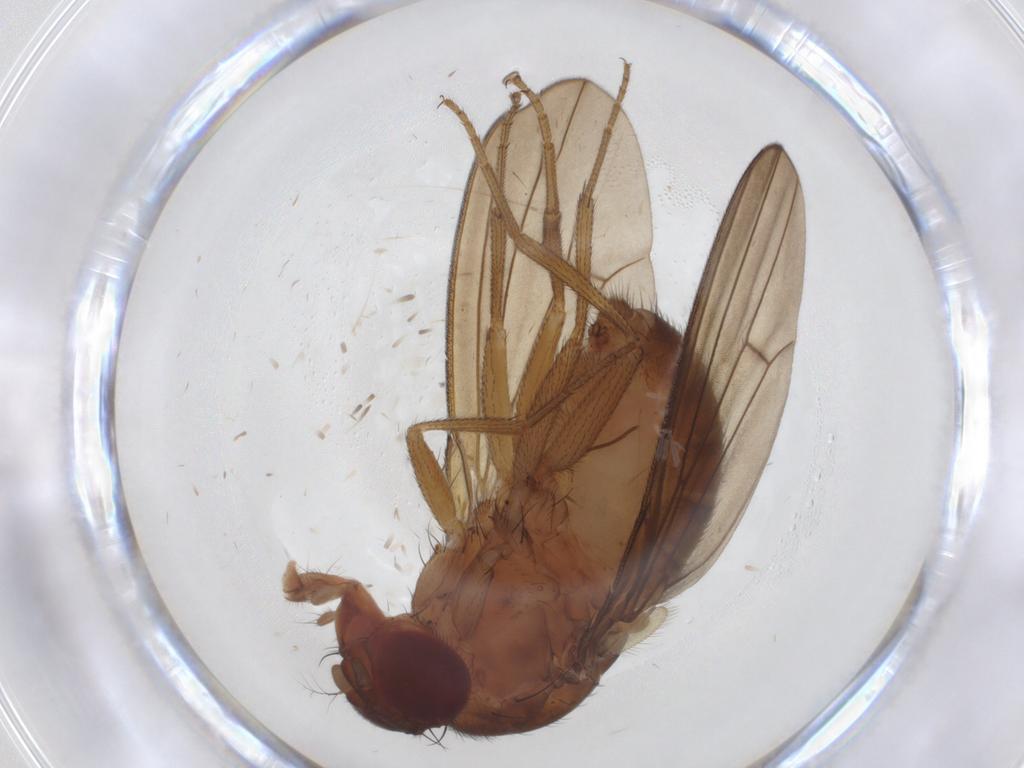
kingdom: Animalia
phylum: Arthropoda
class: Insecta
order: Diptera
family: Drosophilidae
